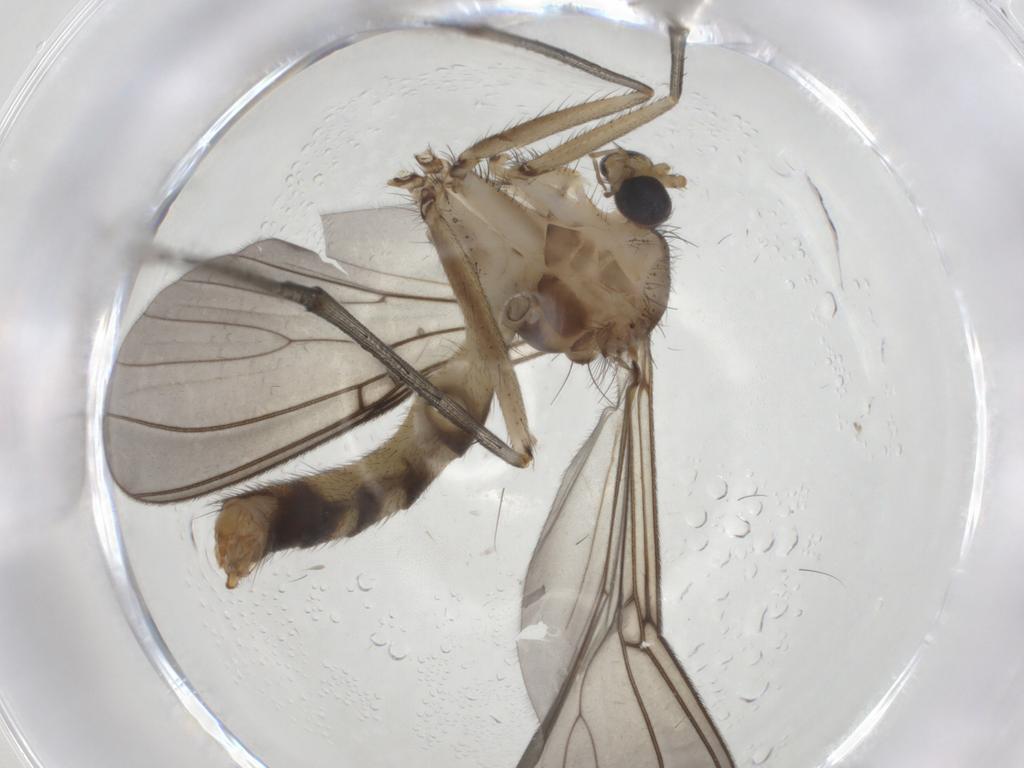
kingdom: Animalia
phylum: Arthropoda
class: Insecta
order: Diptera
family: Mycetophilidae
